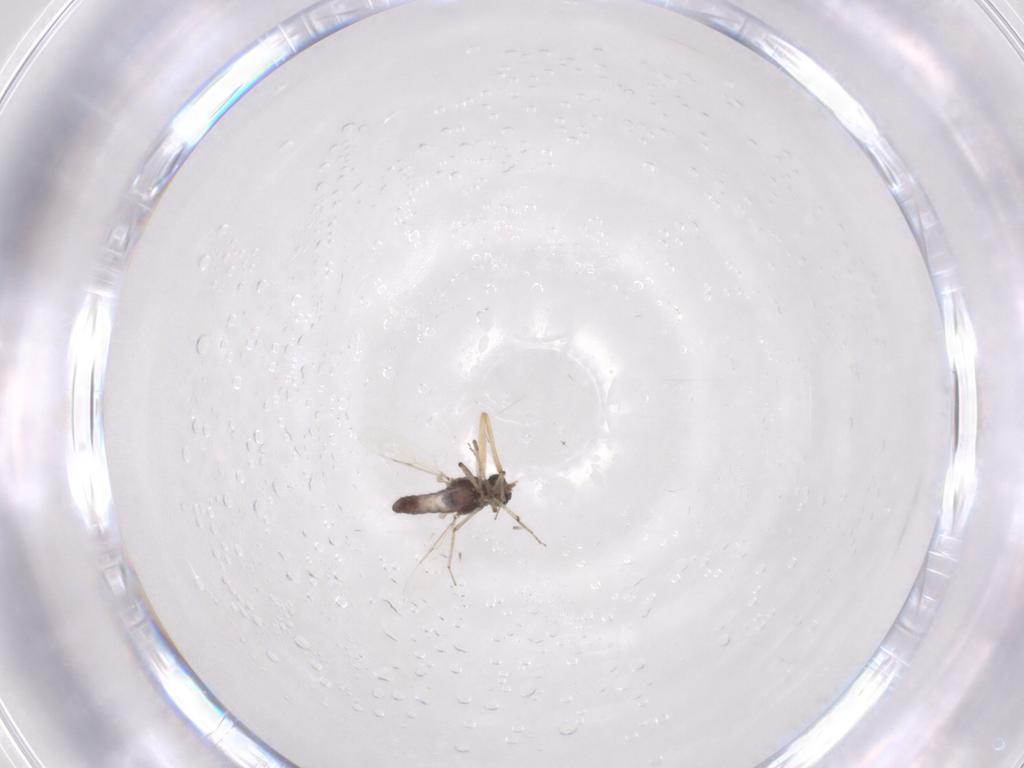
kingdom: Animalia
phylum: Arthropoda
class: Insecta
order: Diptera
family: Ceratopogonidae
